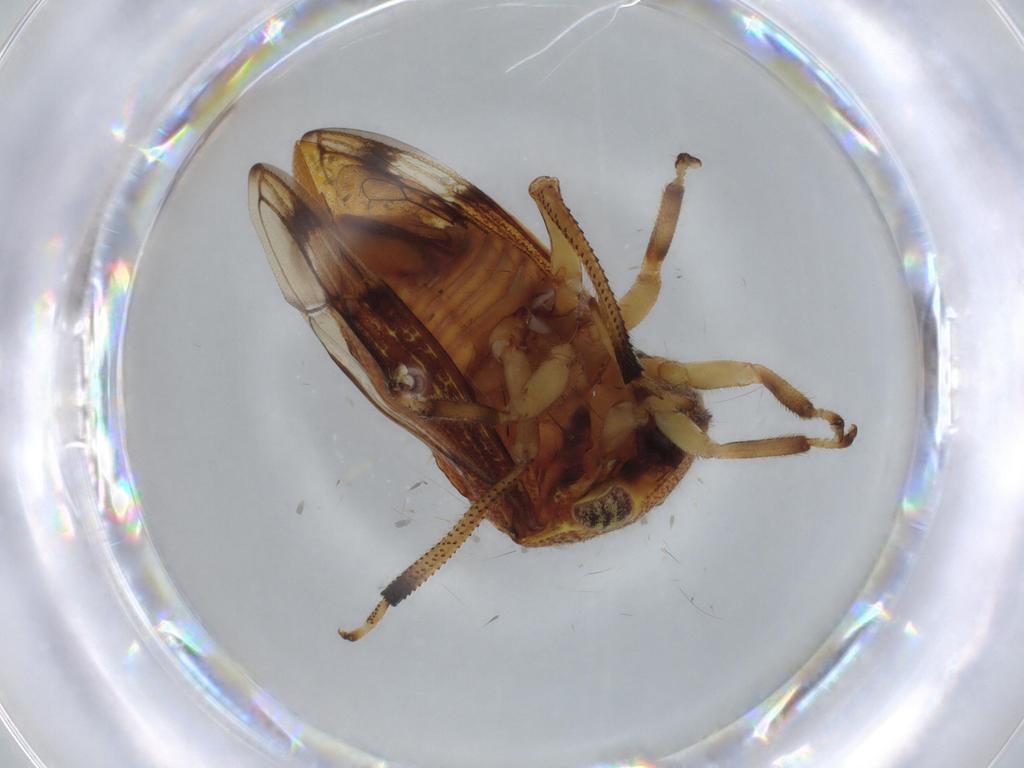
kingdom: Animalia
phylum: Arthropoda
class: Insecta
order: Hemiptera
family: Membracidae
